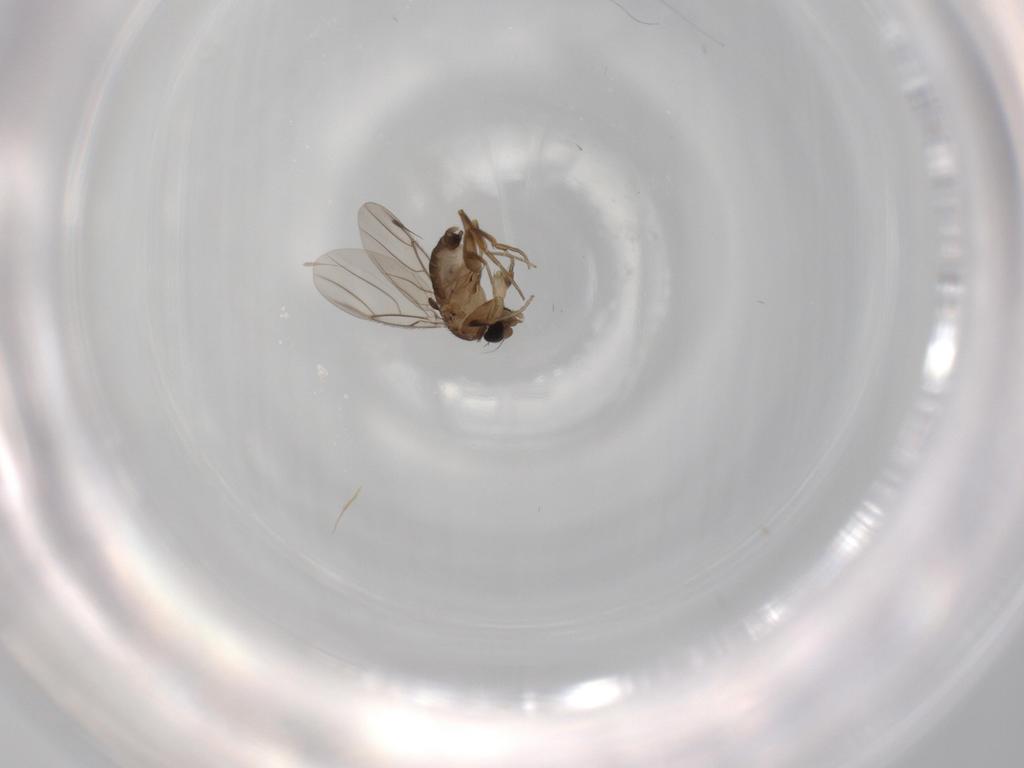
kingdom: Animalia
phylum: Arthropoda
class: Insecta
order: Diptera
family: Phoridae
